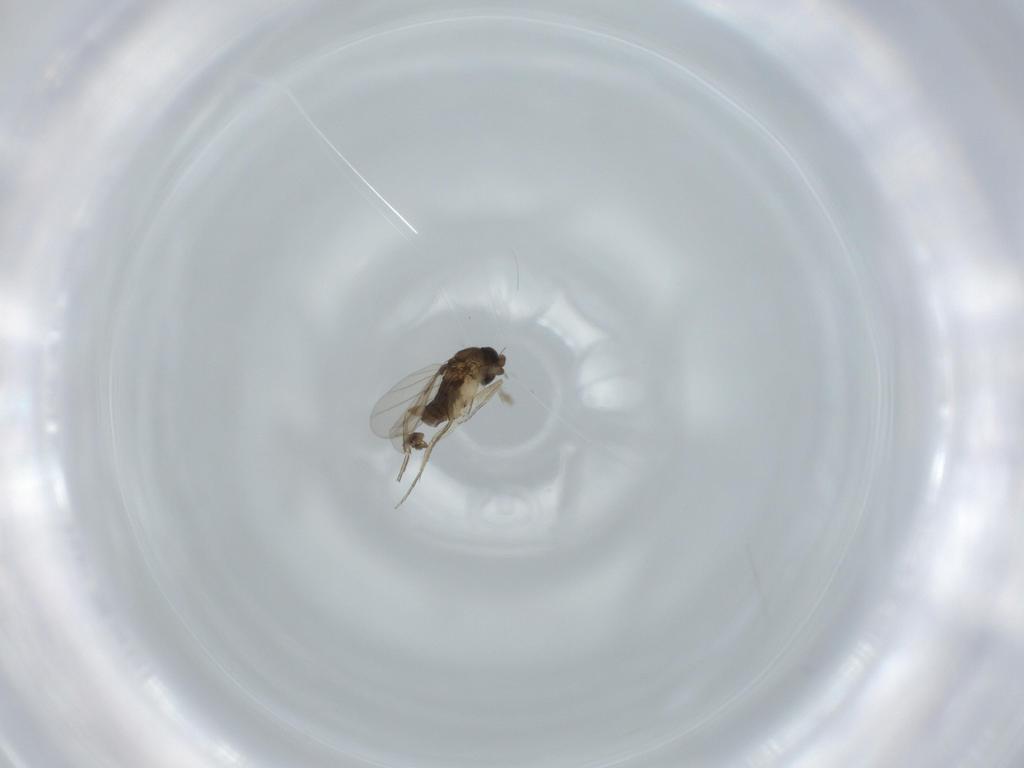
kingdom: Animalia
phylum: Arthropoda
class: Insecta
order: Diptera
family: Phoridae
